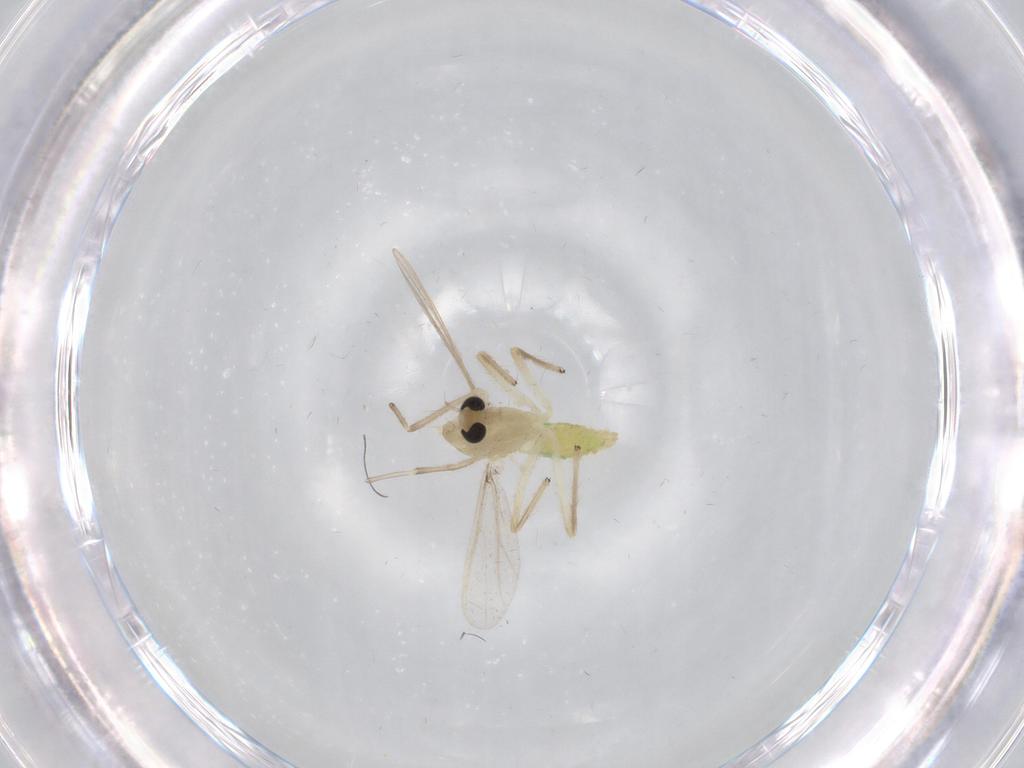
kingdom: Animalia
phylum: Arthropoda
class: Insecta
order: Diptera
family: Chironomidae
